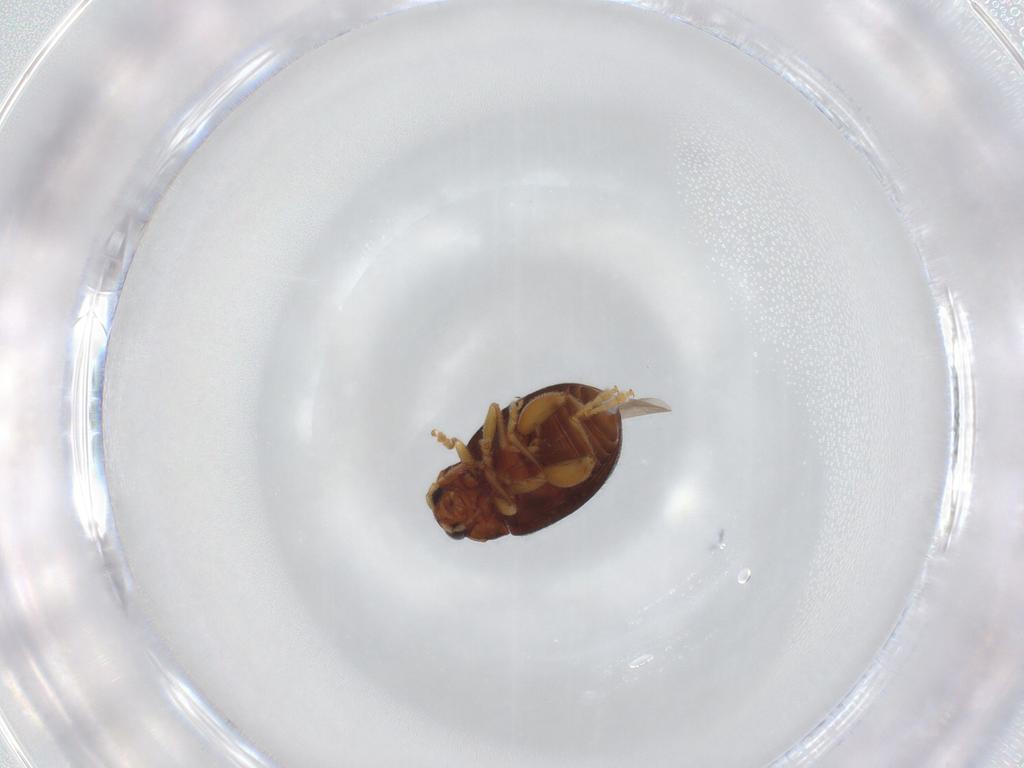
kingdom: Animalia
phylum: Arthropoda
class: Insecta
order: Coleoptera
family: Chrysomelidae
